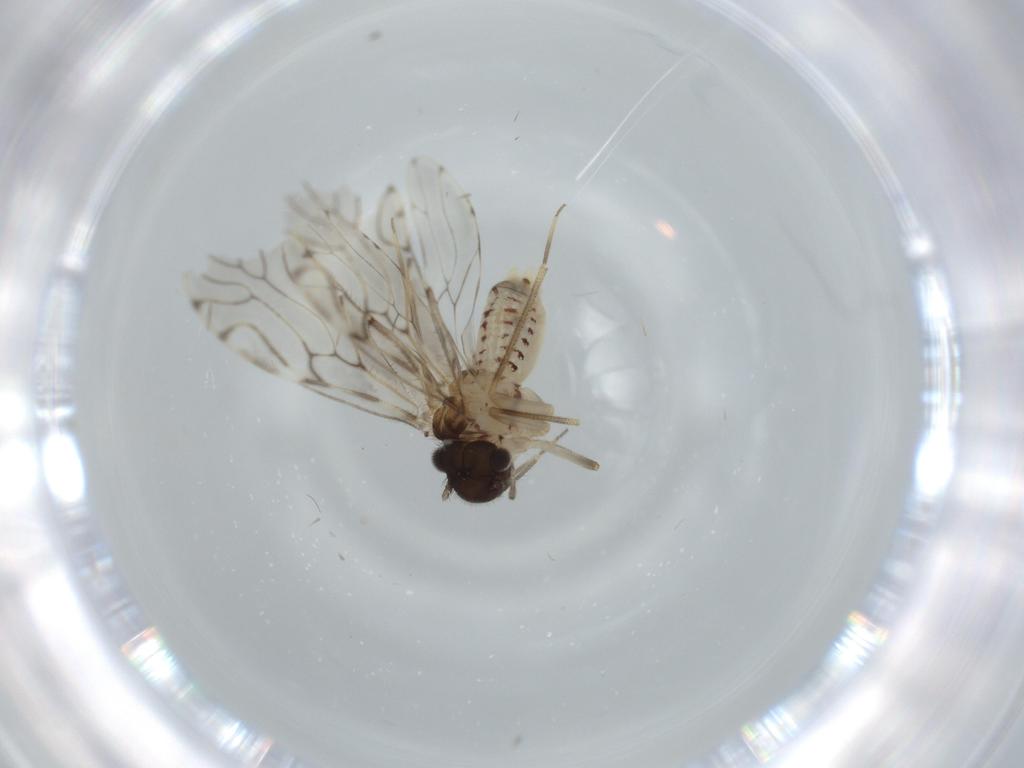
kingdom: Animalia
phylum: Arthropoda
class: Insecta
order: Psocodea
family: Epipsocidae
